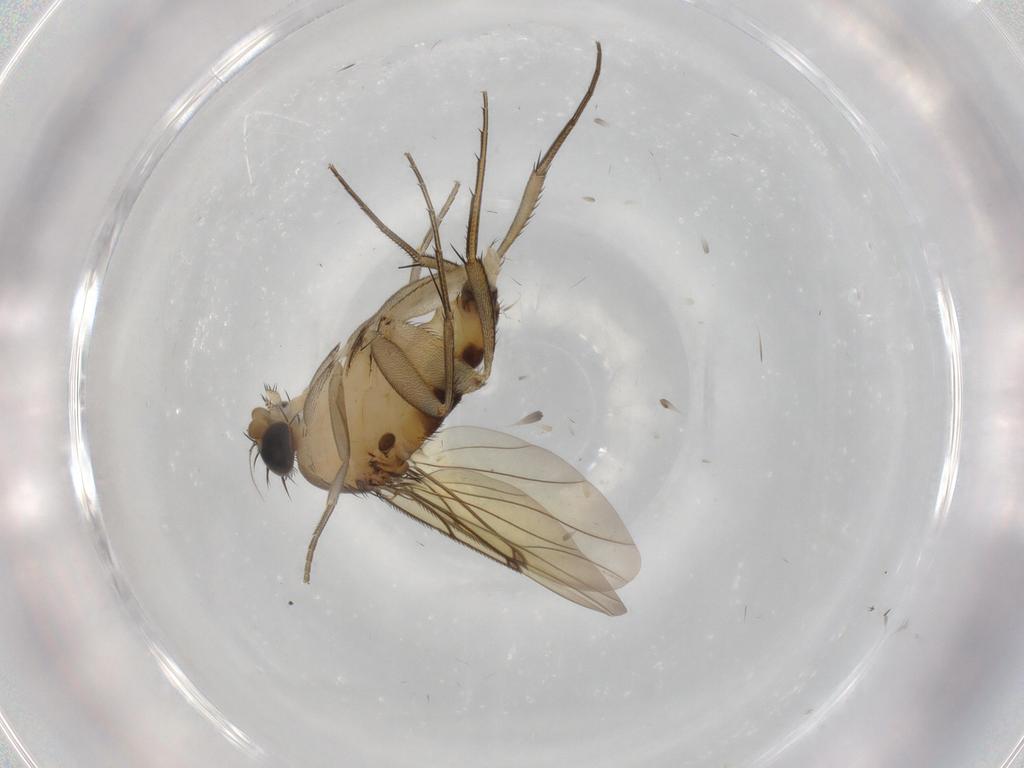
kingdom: Animalia
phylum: Arthropoda
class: Insecta
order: Diptera
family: Phoridae
